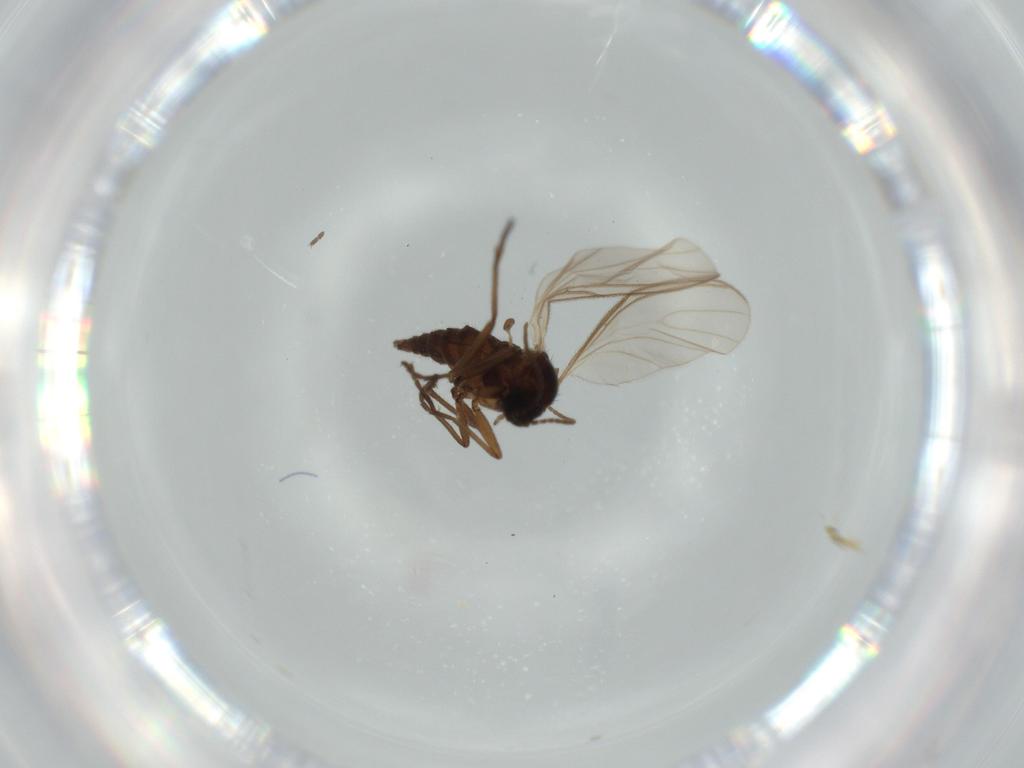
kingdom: Animalia
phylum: Arthropoda
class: Insecta
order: Diptera
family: Sciaridae
